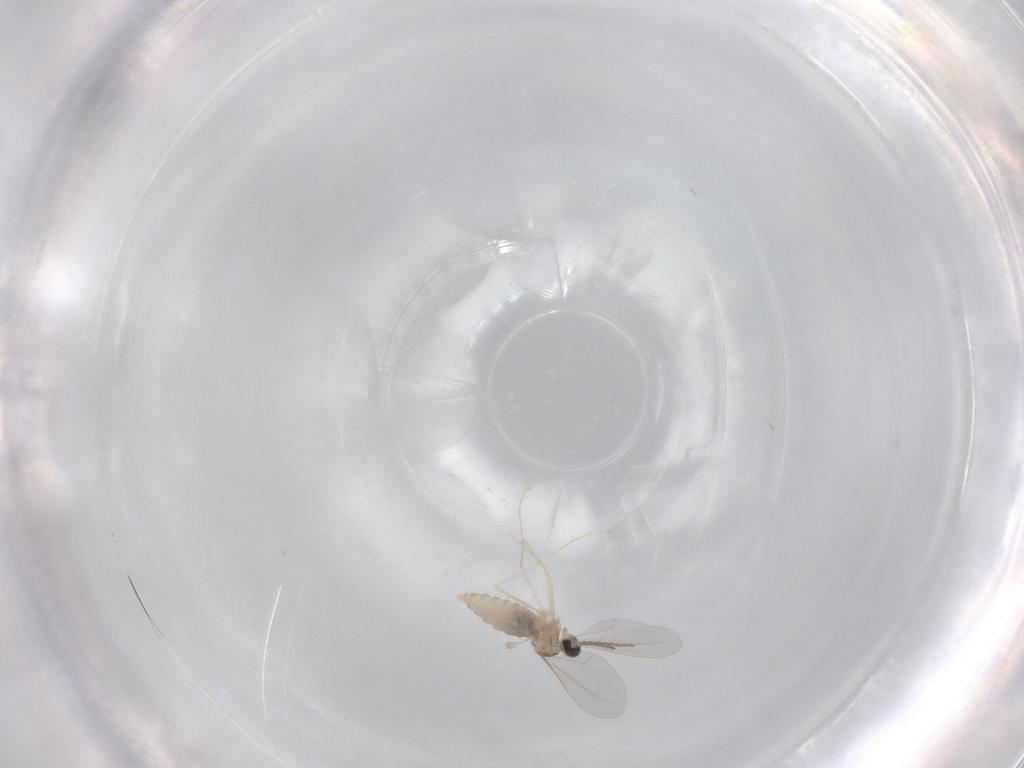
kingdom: Animalia
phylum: Arthropoda
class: Insecta
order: Diptera
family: Cecidomyiidae
